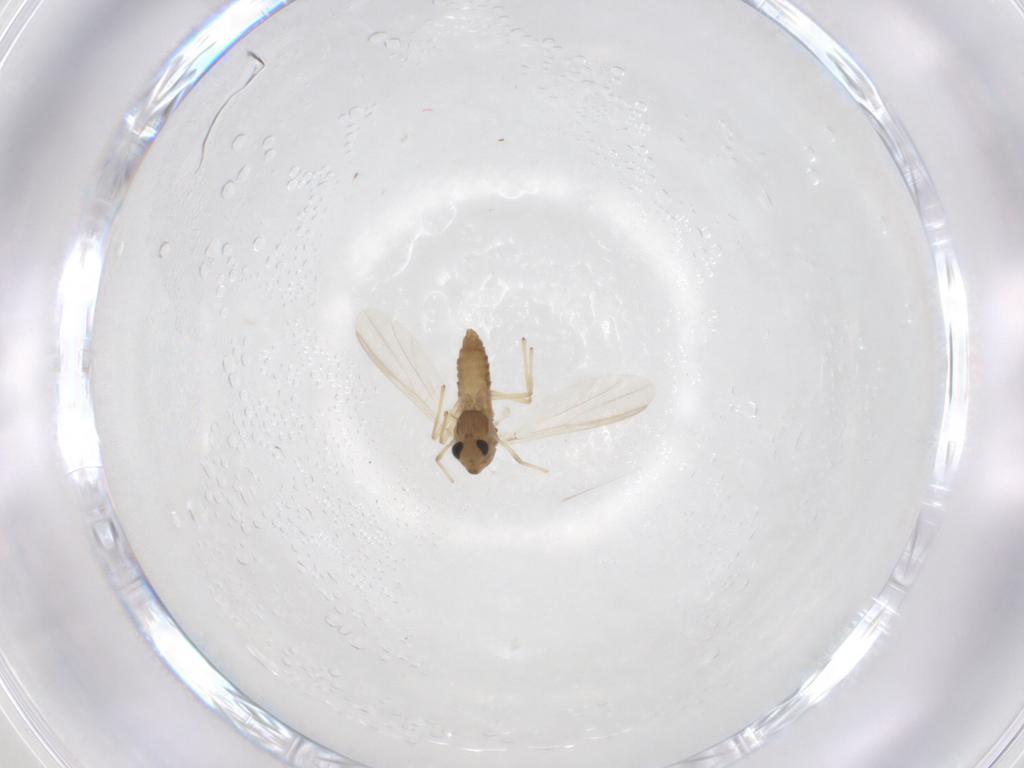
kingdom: Animalia
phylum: Arthropoda
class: Insecta
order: Diptera
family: Chironomidae
